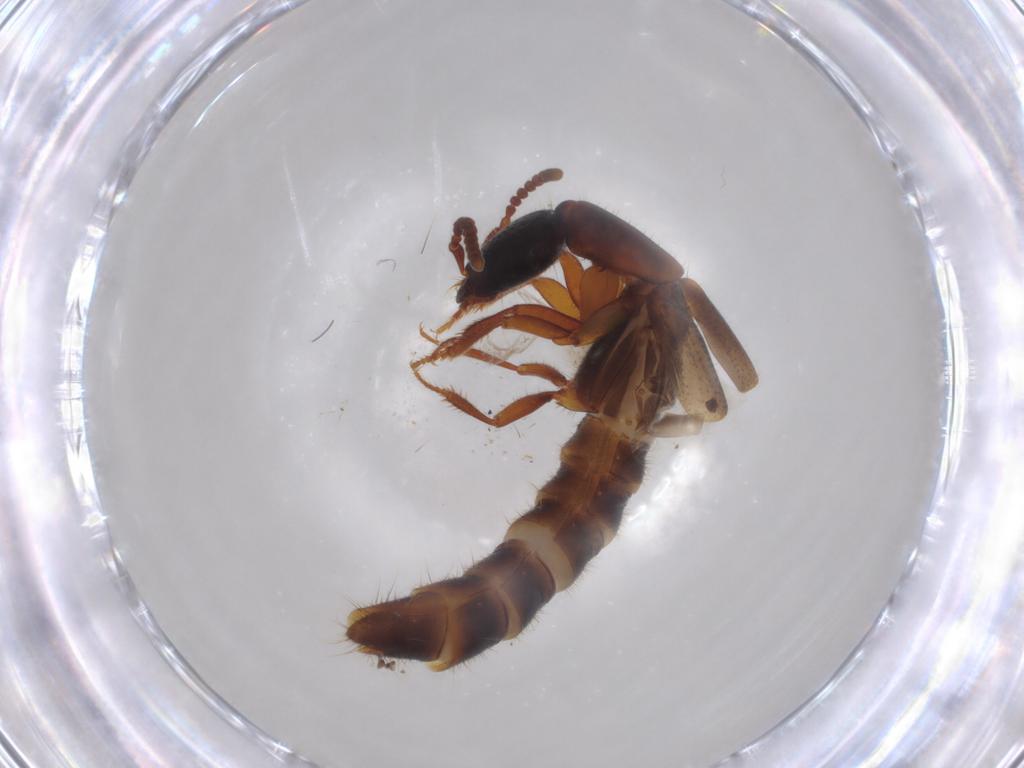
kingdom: Animalia
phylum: Arthropoda
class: Insecta
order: Coleoptera
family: Staphylinidae
